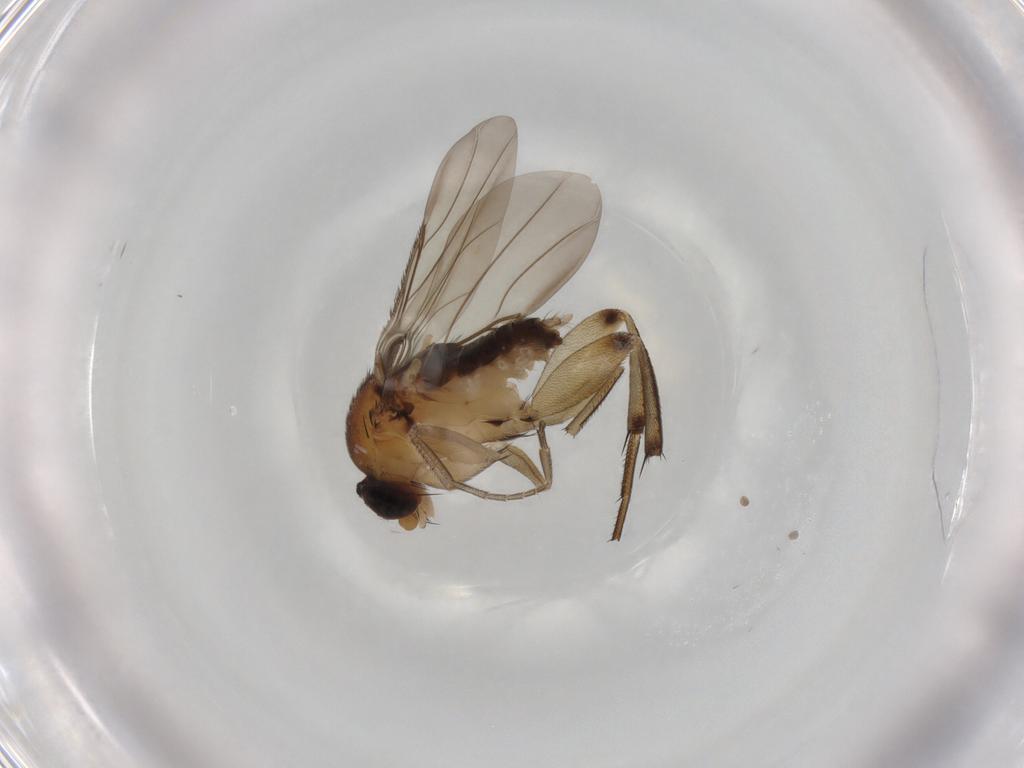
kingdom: Animalia
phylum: Arthropoda
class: Insecta
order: Diptera
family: Phoridae
